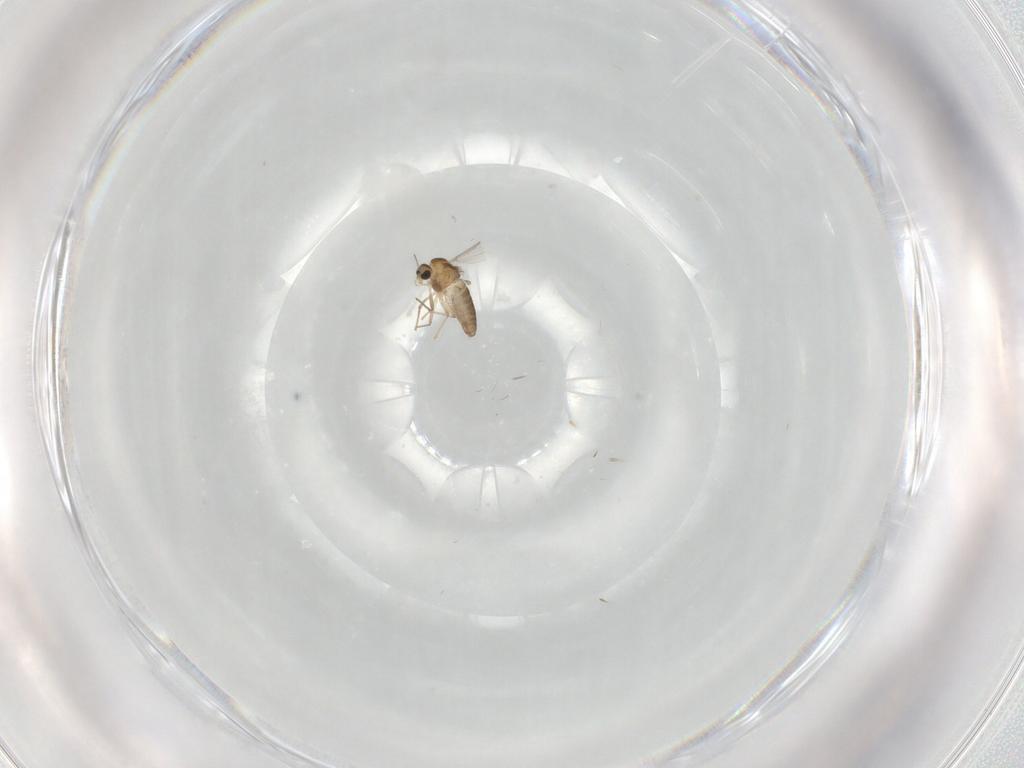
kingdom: Animalia
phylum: Arthropoda
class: Insecta
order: Diptera
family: Chironomidae
